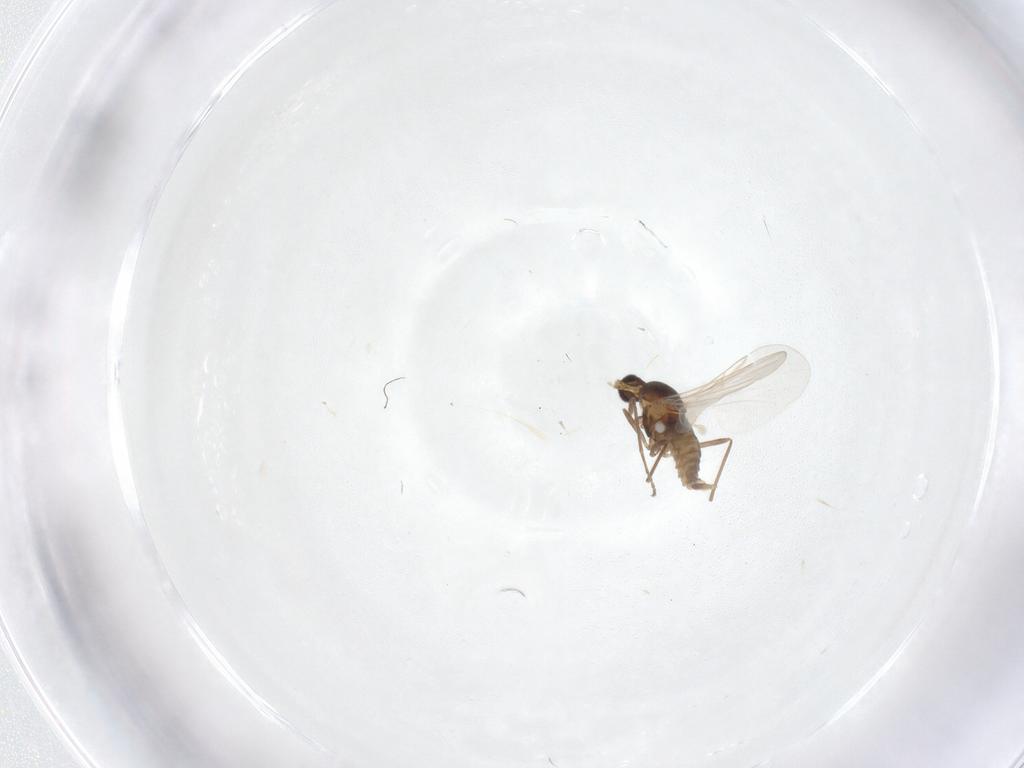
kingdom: Animalia
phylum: Arthropoda
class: Insecta
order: Diptera
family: Cecidomyiidae
